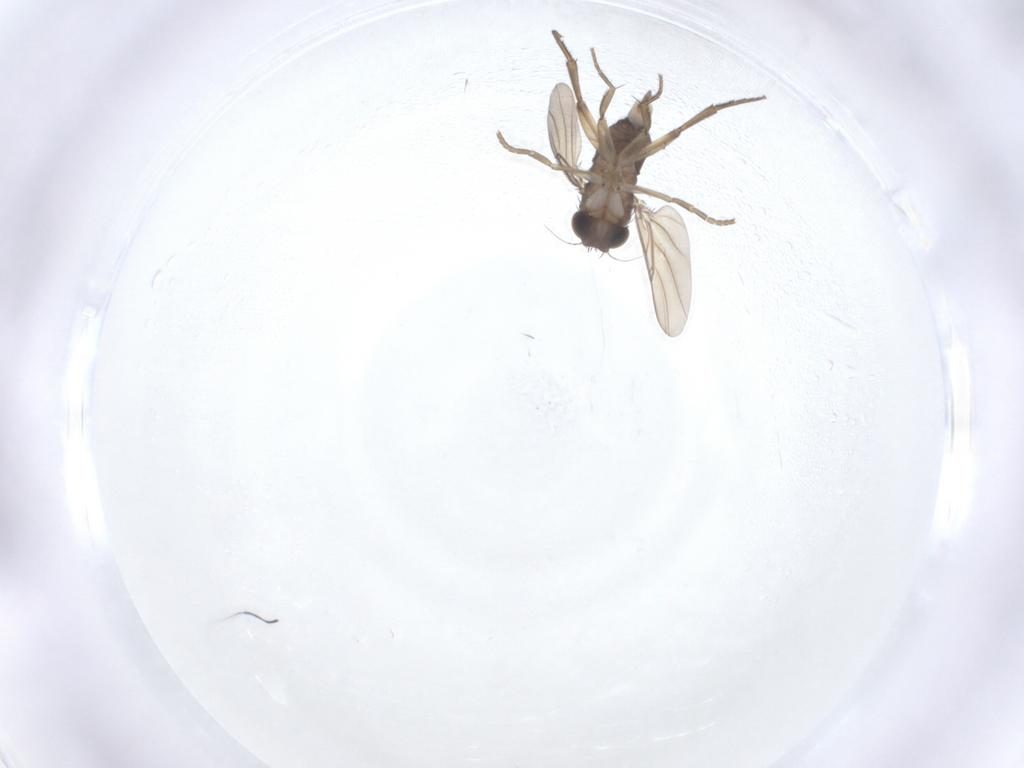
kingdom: Animalia
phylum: Arthropoda
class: Insecta
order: Diptera
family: Phoridae
